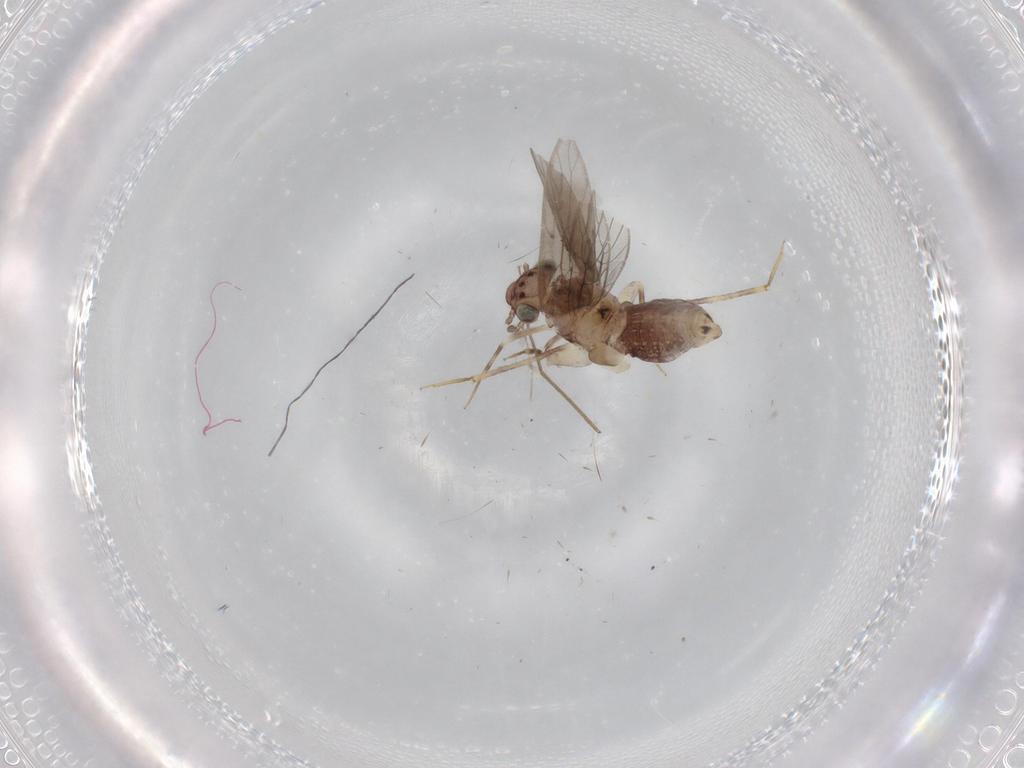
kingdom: Animalia
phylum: Arthropoda
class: Insecta
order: Psocodea
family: Lepidopsocidae
